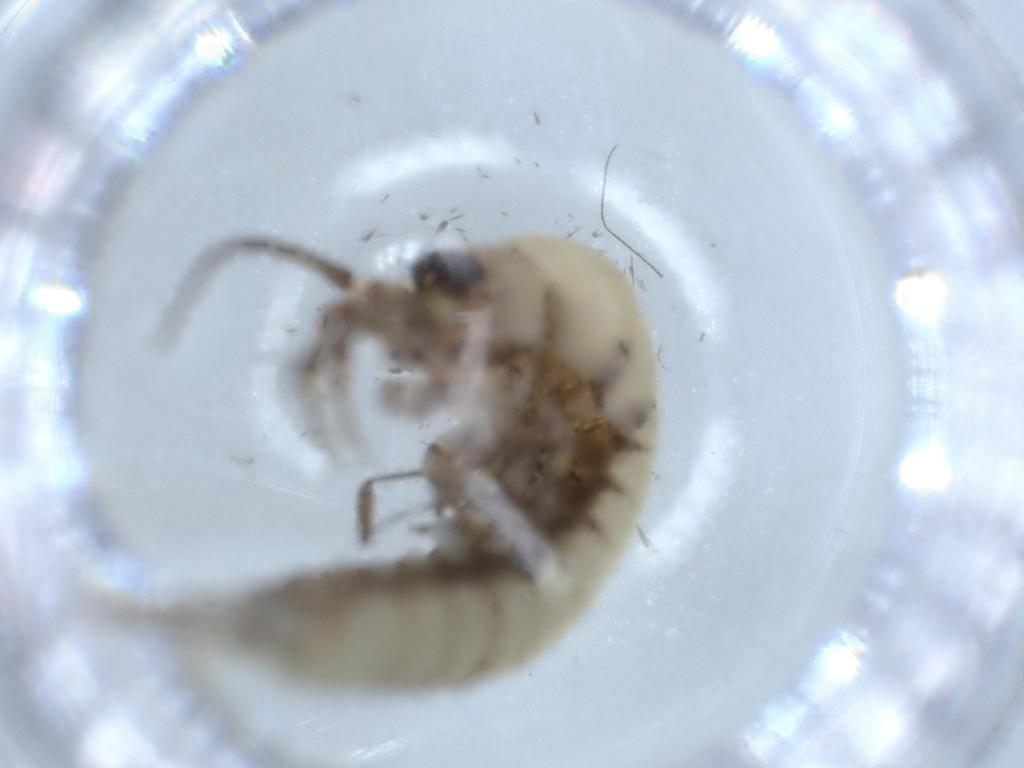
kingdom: Animalia
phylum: Arthropoda
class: Insecta
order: Archaeognatha
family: Machilidae
